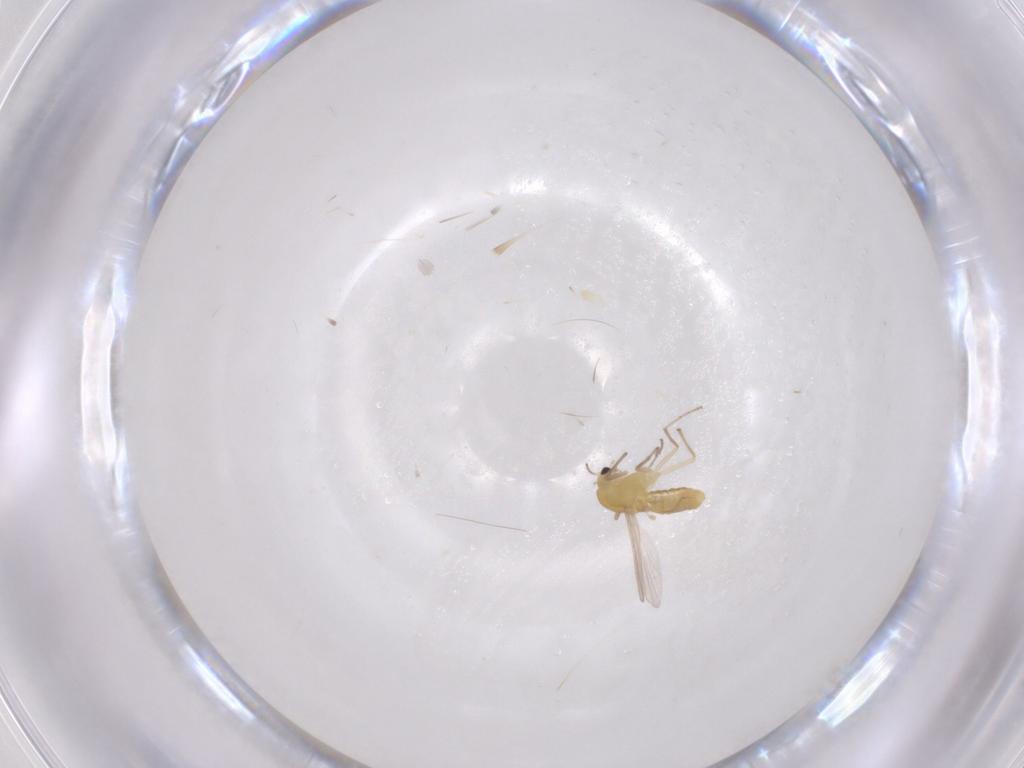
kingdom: Animalia
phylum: Arthropoda
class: Insecta
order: Diptera
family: Chironomidae
